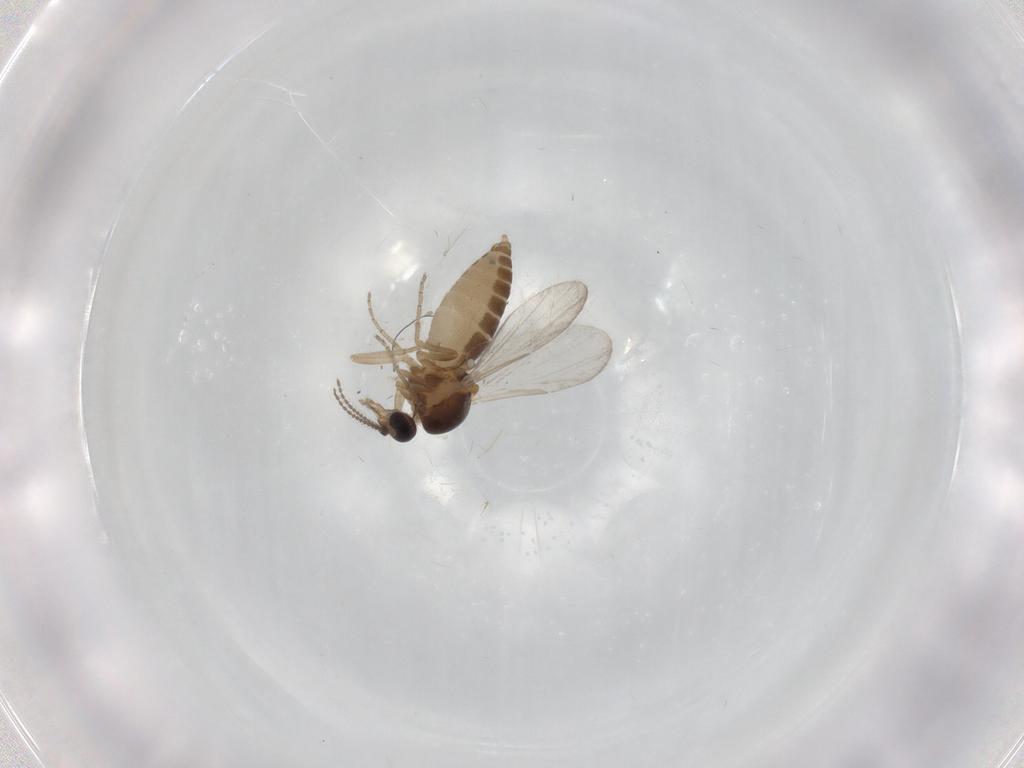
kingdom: Animalia
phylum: Arthropoda
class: Insecta
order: Diptera
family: Ceratopogonidae
